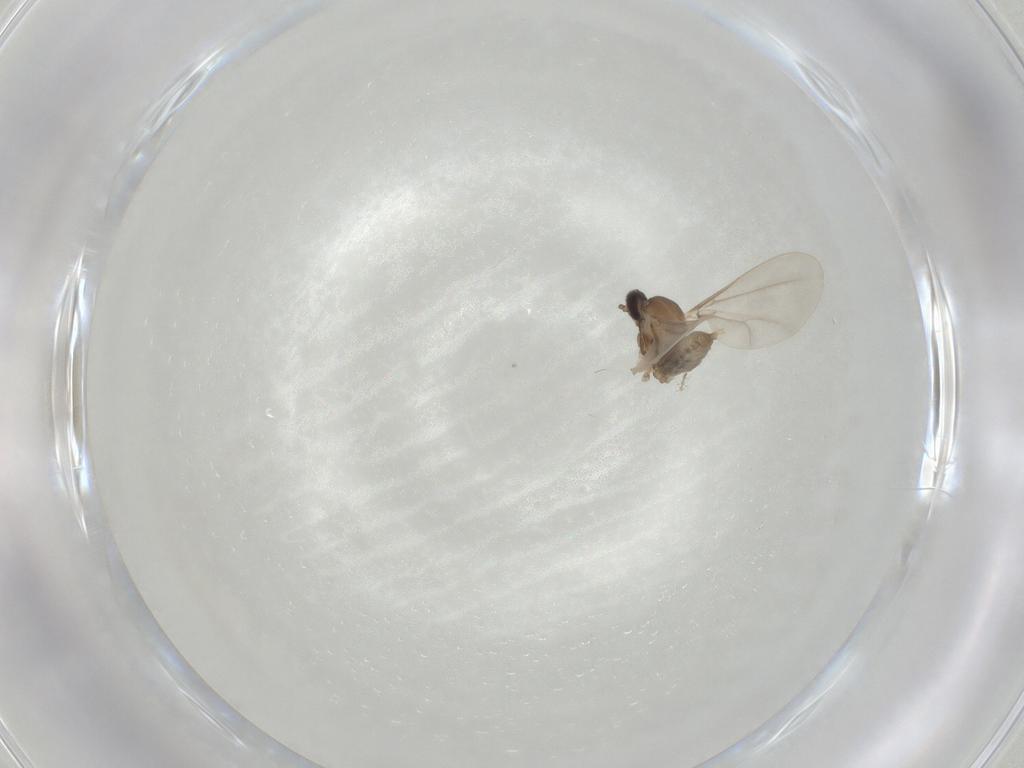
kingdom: Animalia
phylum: Arthropoda
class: Insecta
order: Diptera
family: Cecidomyiidae
